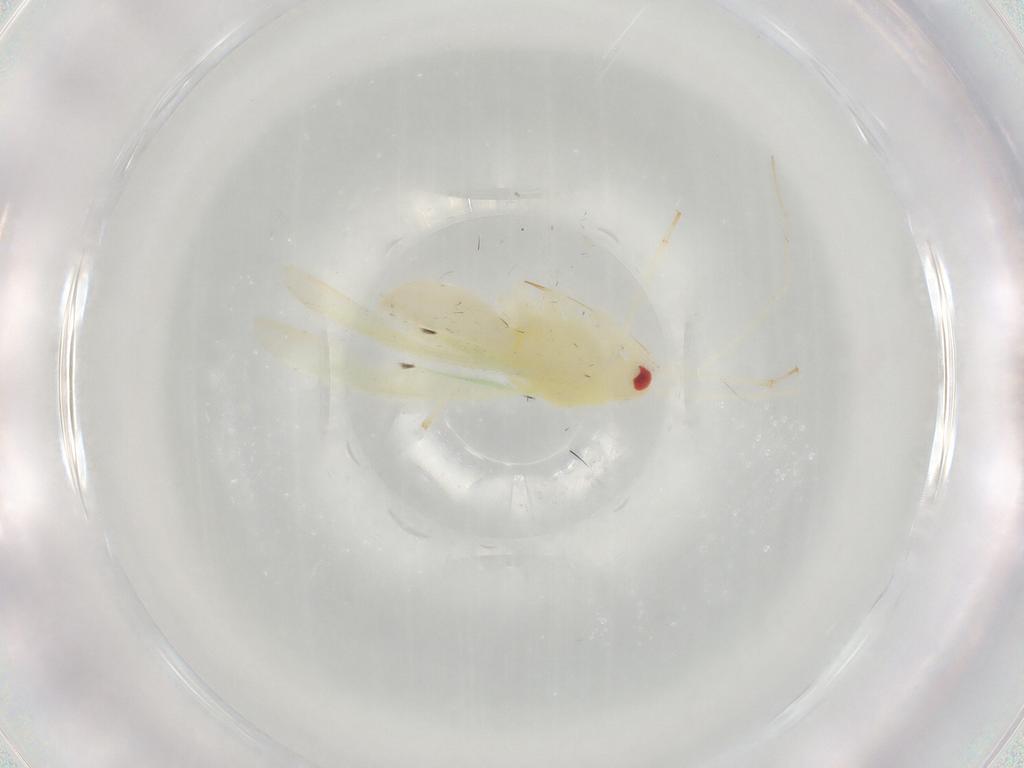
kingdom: Animalia
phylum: Arthropoda
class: Insecta
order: Hemiptera
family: Miridae
